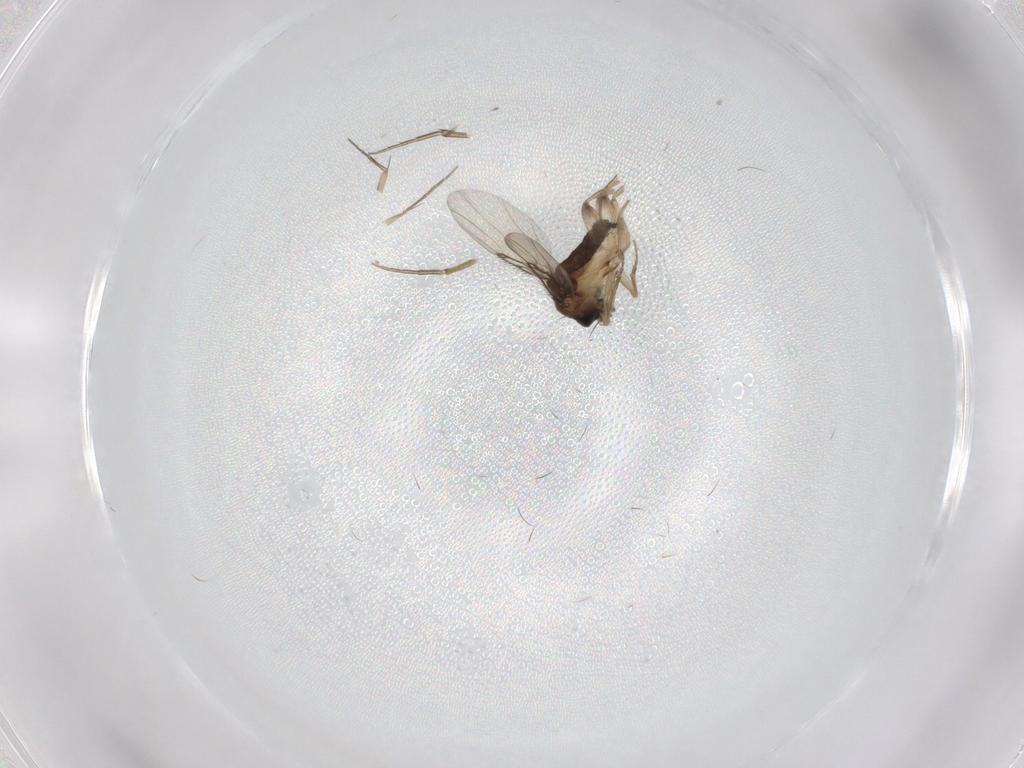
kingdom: Animalia
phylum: Arthropoda
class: Insecta
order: Diptera
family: Phoridae
